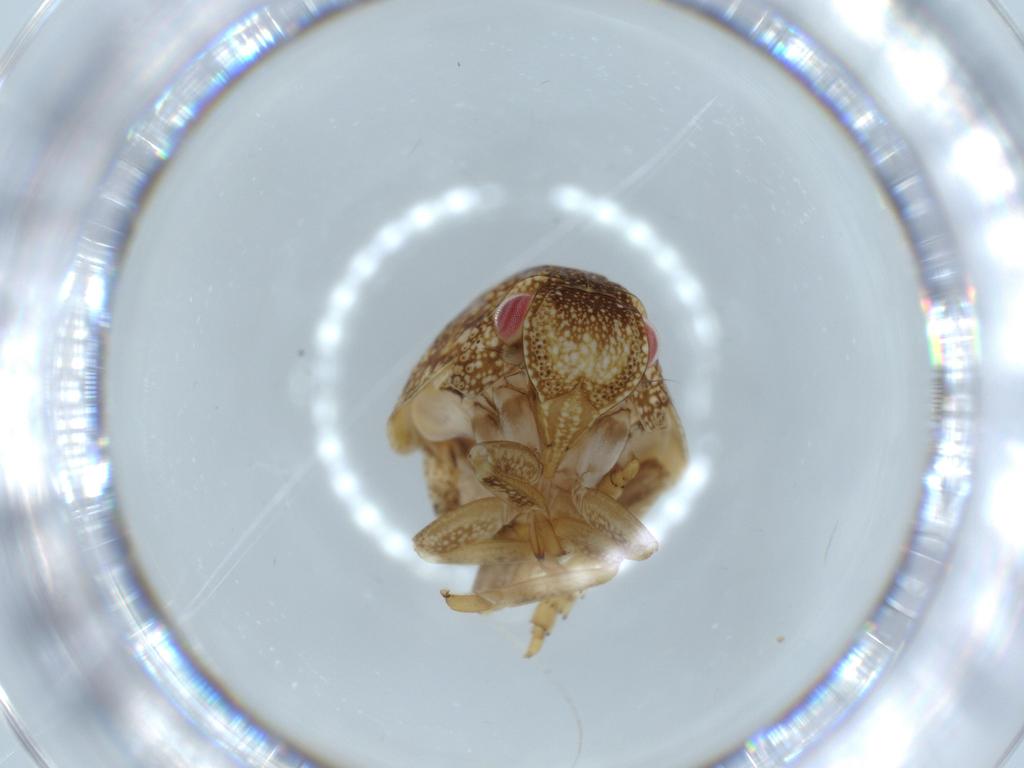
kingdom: Animalia
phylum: Arthropoda
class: Insecta
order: Hemiptera
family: Acanaloniidae
